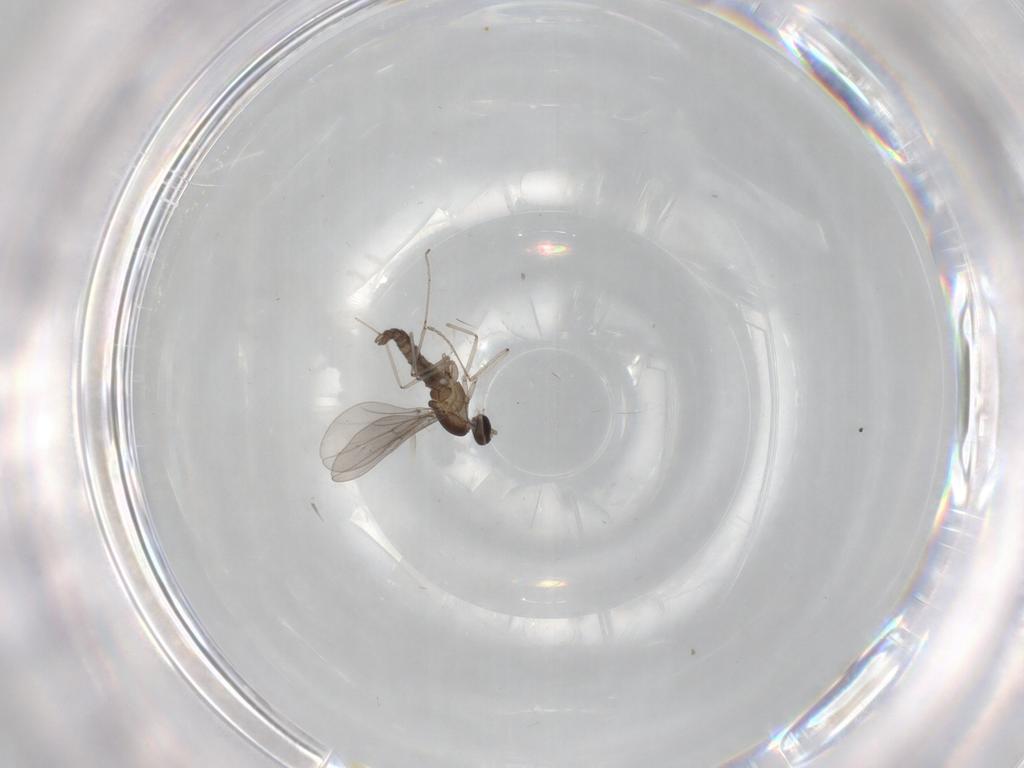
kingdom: Animalia
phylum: Arthropoda
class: Insecta
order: Diptera
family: Cecidomyiidae
